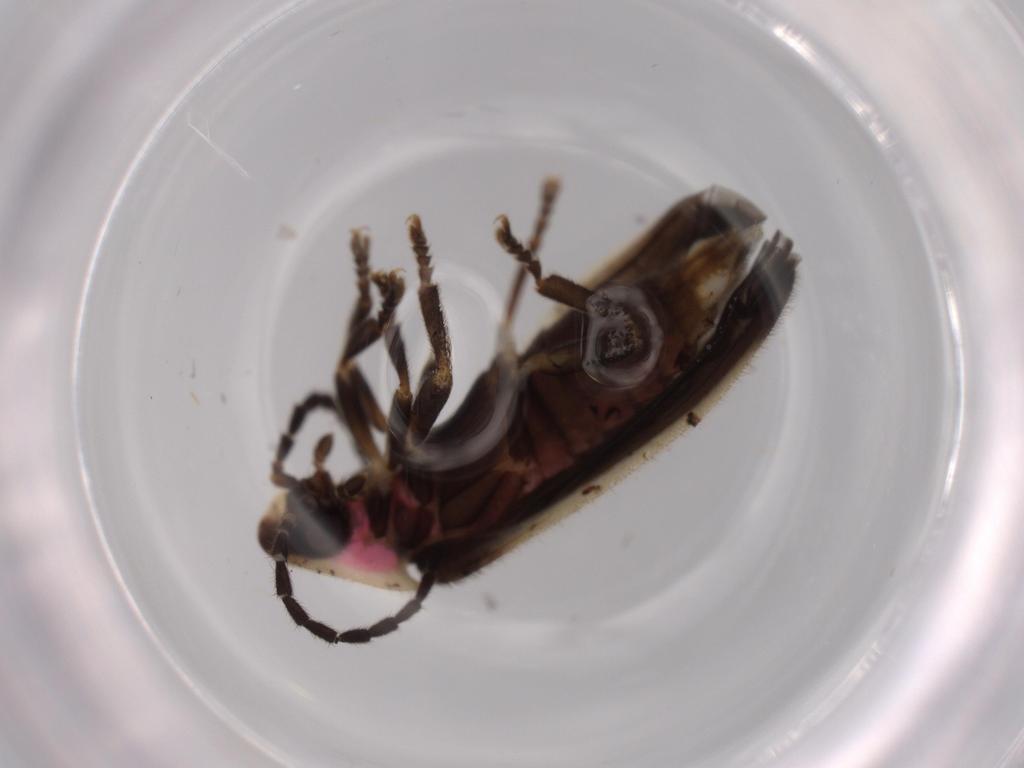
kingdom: Animalia
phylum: Arthropoda
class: Insecta
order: Coleoptera
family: Lampyridae
